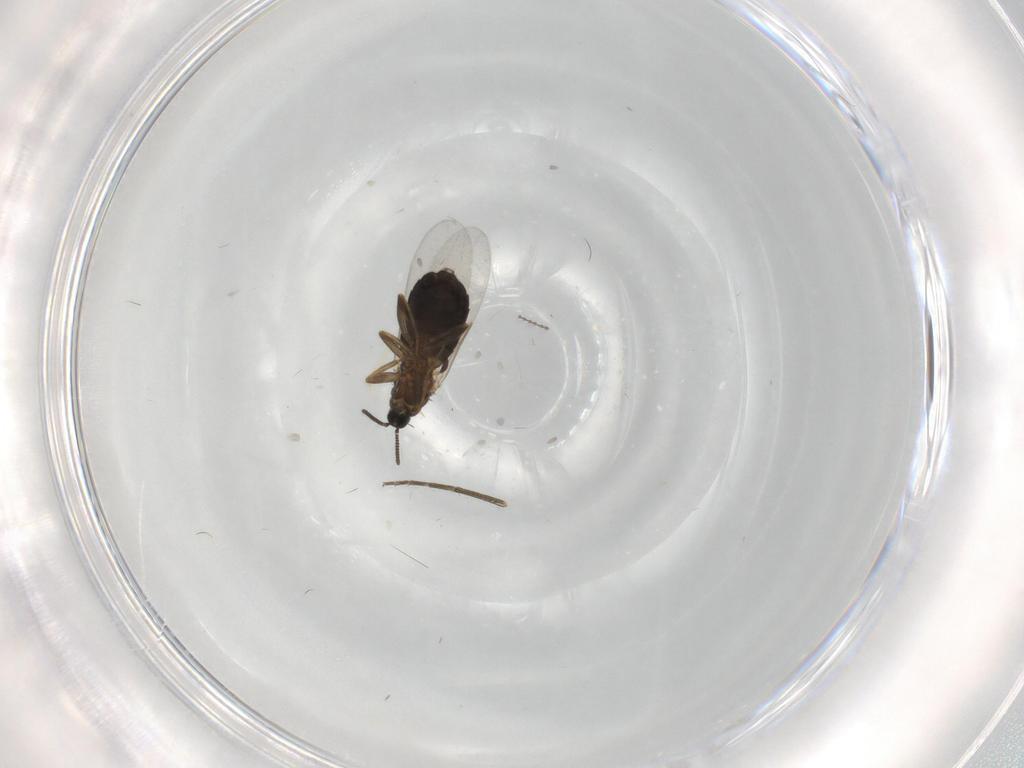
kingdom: Animalia
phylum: Arthropoda
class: Insecta
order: Diptera
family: Scatopsidae
